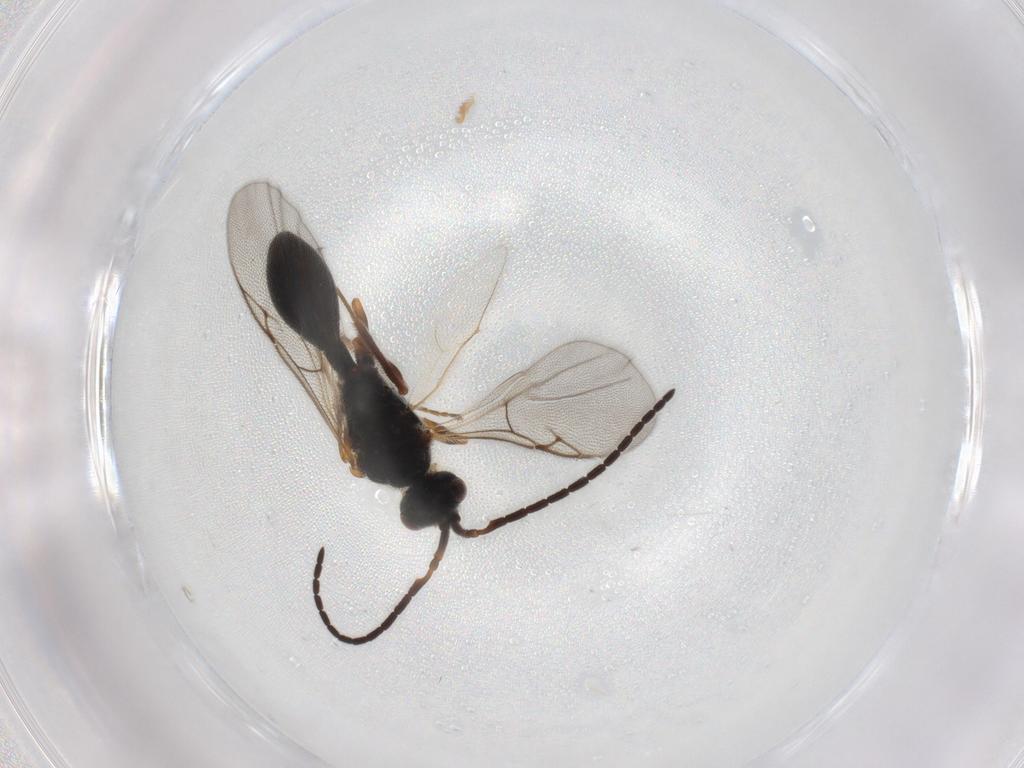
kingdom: Animalia
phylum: Arthropoda
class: Insecta
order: Hymenoptera
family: Diapriidae
